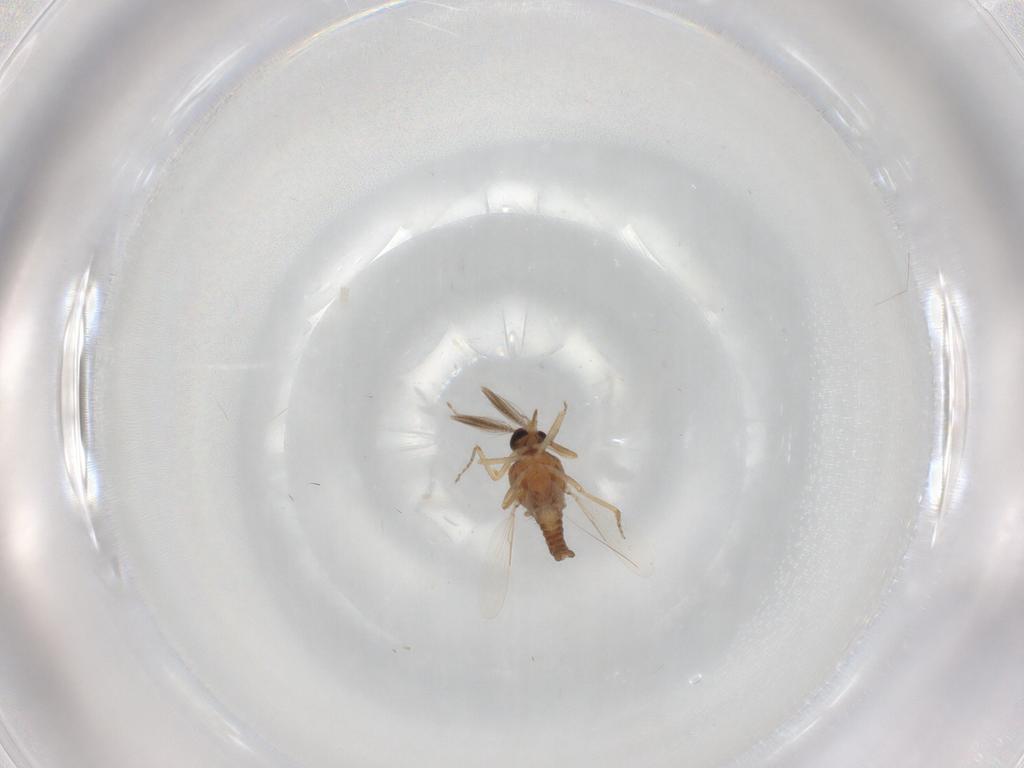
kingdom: Animalia
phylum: Arthropoda
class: Insecta
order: Diptera
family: Ceratopogonidae
